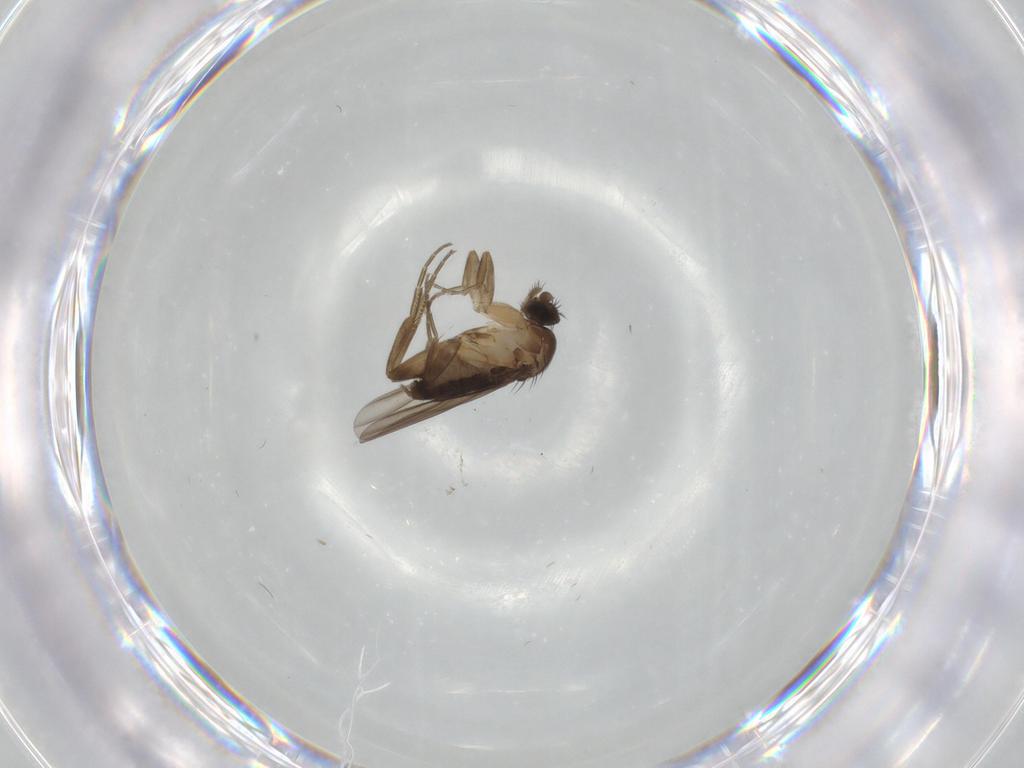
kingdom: Animalia
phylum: Arthropoda
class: Insecta
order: Diptera
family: Phoridae
